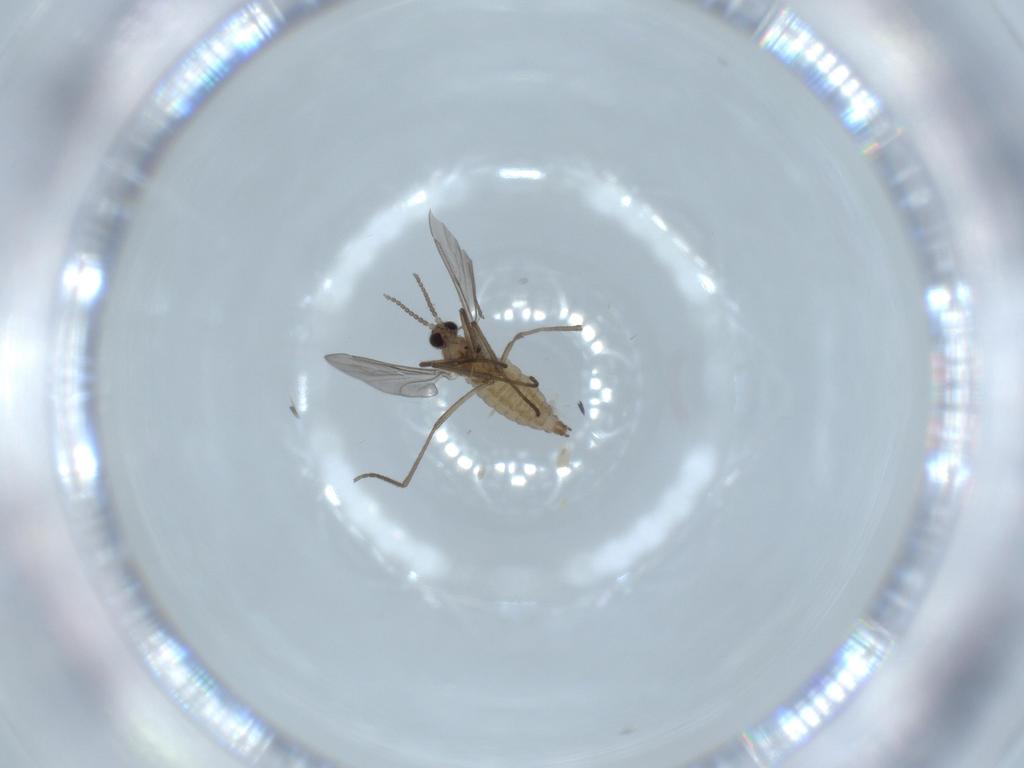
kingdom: Animalia
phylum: Arthropoda
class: Insecta
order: Diptera
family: Cecidomyiidae
